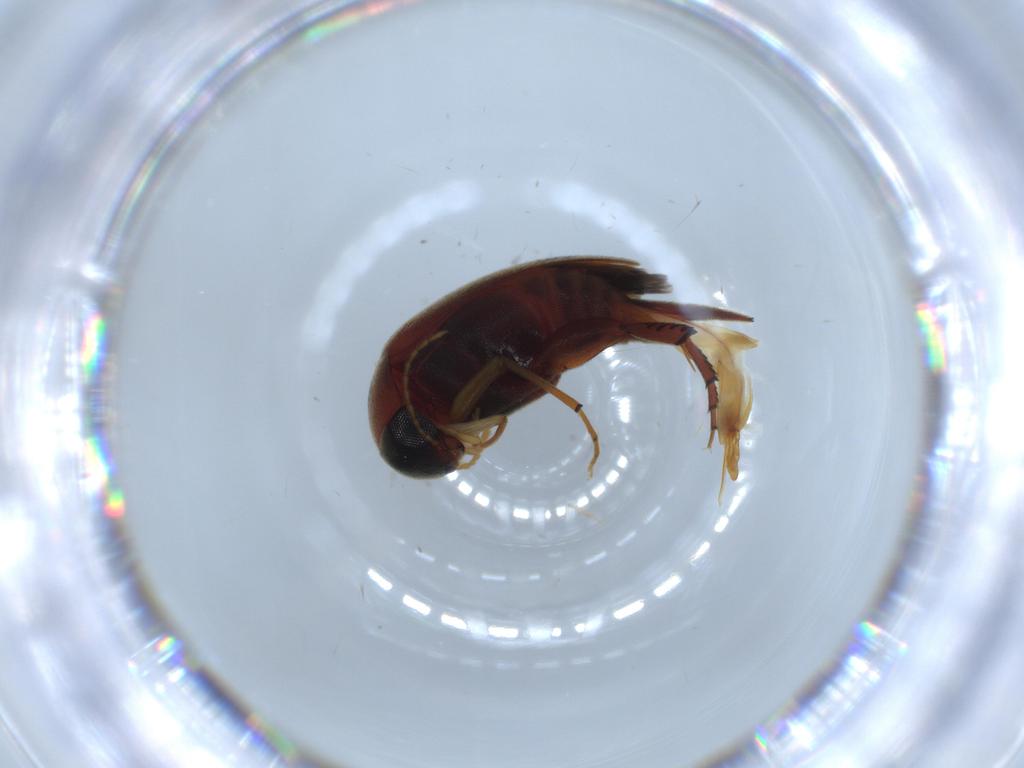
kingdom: Animalia
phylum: Arthropoda
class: Insecta
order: Coleoptera
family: Mordellidae
